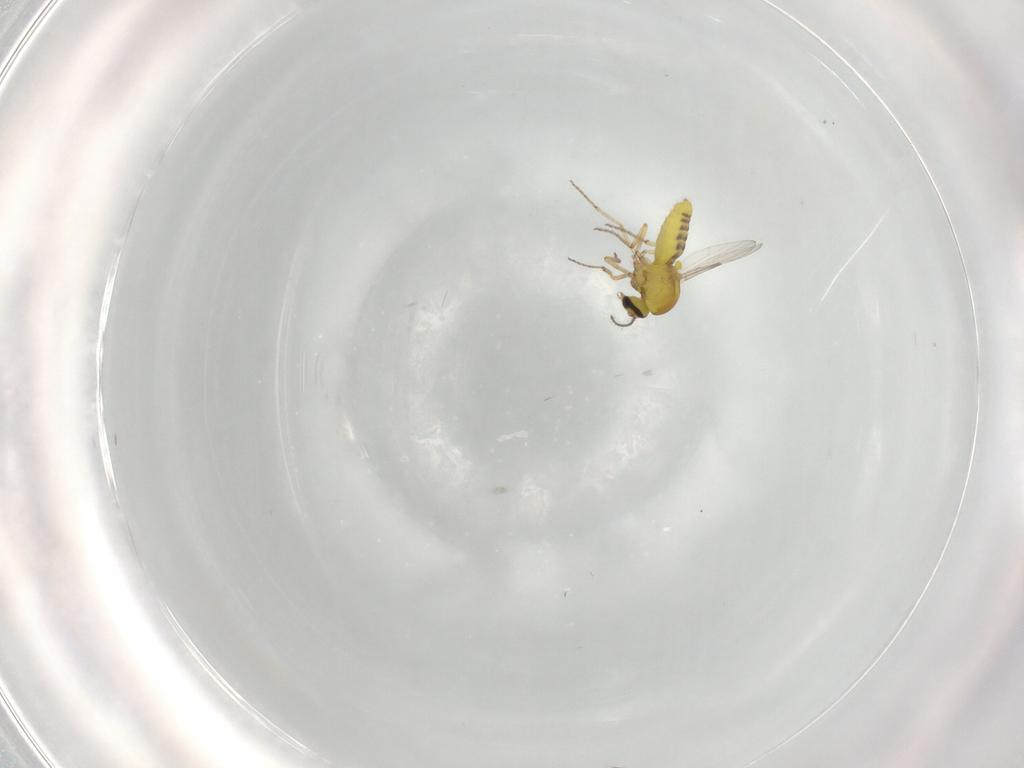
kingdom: Animalia
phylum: Arthropoda
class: Insecta
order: Diptera
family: Ceratopogonidae
